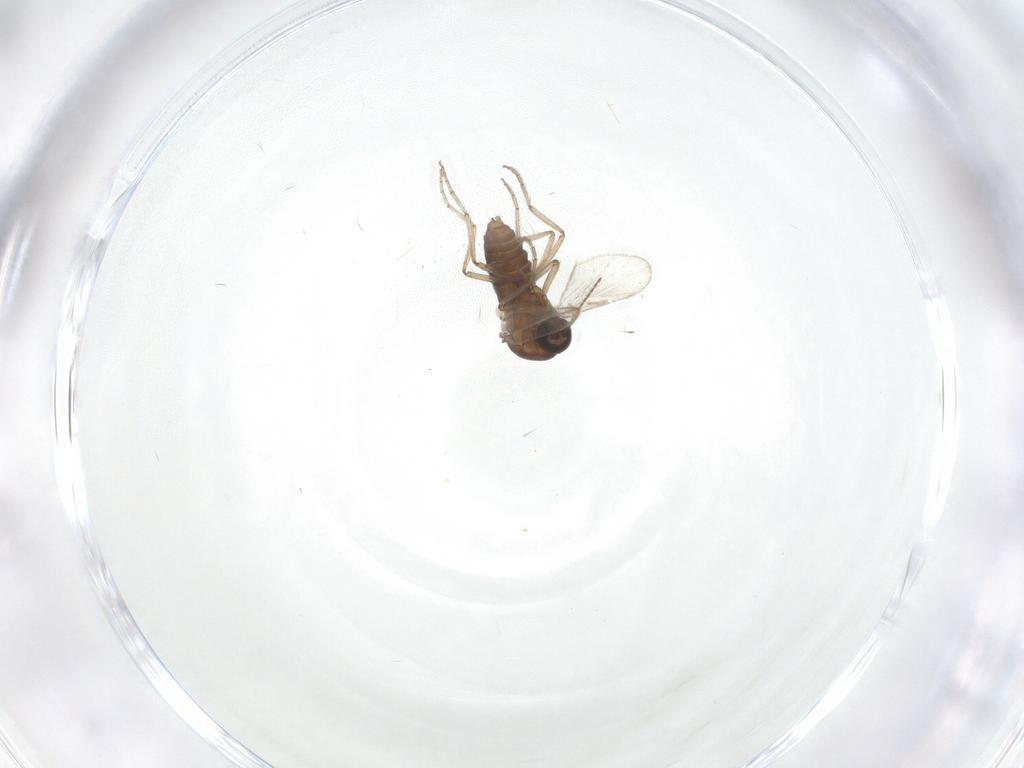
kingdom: Animalia
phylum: Arthropoda
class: Insecta
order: Diptera
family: Ceratopogonidae
